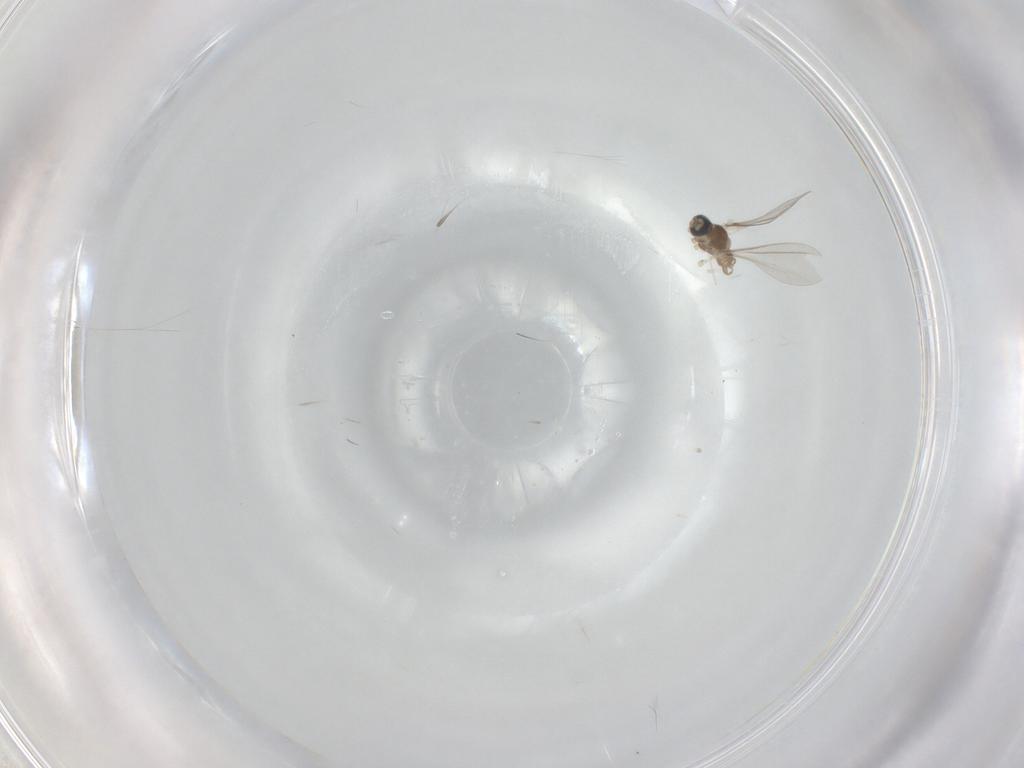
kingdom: Animalia
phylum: Arthropoda
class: Insecta
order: Diptera
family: Cecidomyiidae
